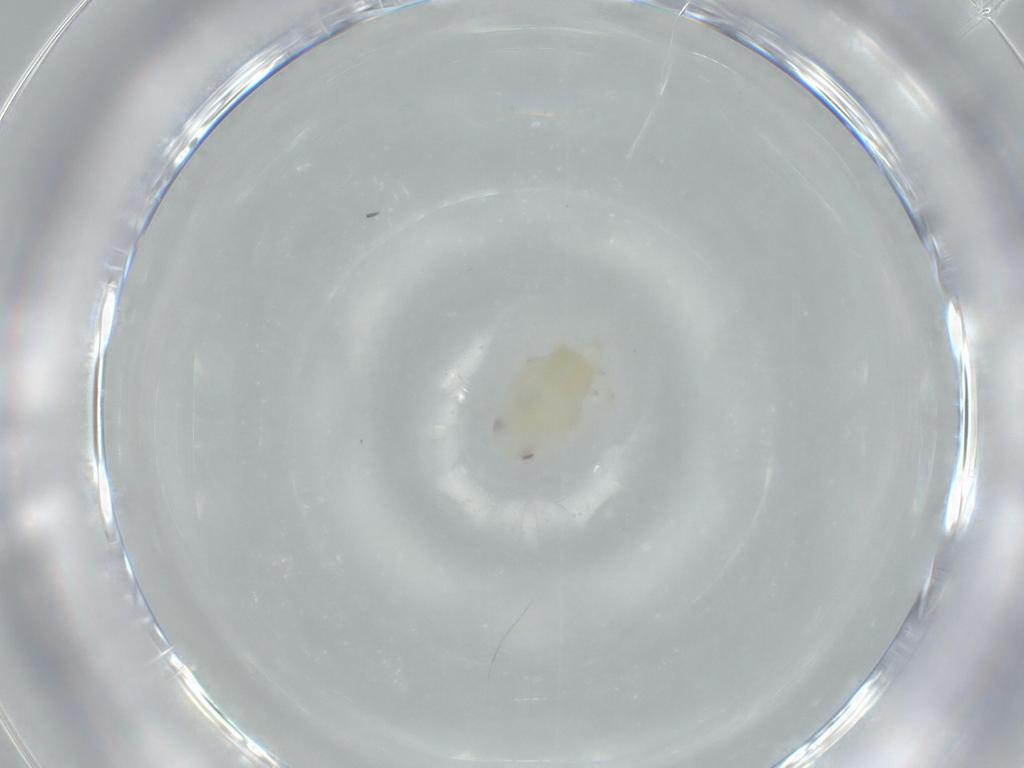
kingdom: Animalia
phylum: Arthropoda
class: Insecta
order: Hemiptera
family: Flatidae
